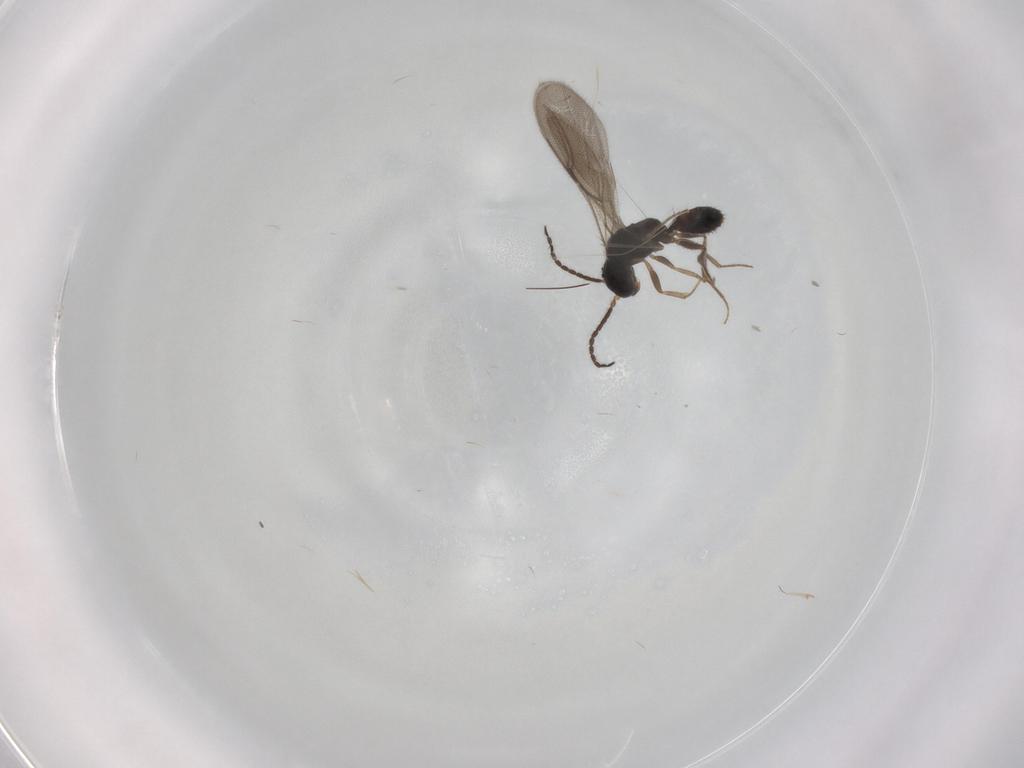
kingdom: Animalia
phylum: Arthropoda
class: Insecta
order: Hymenoptera
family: Bethylidae
